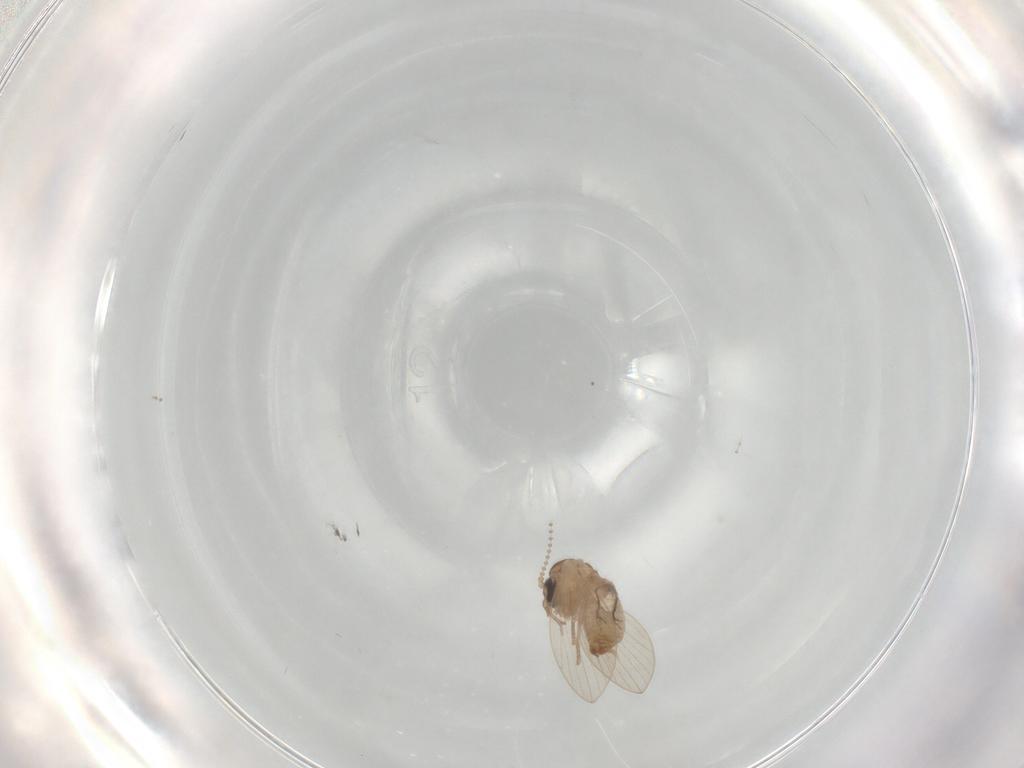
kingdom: Animalia
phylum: Arthropoda
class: Insecta
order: Diptera
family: Psychodidae
